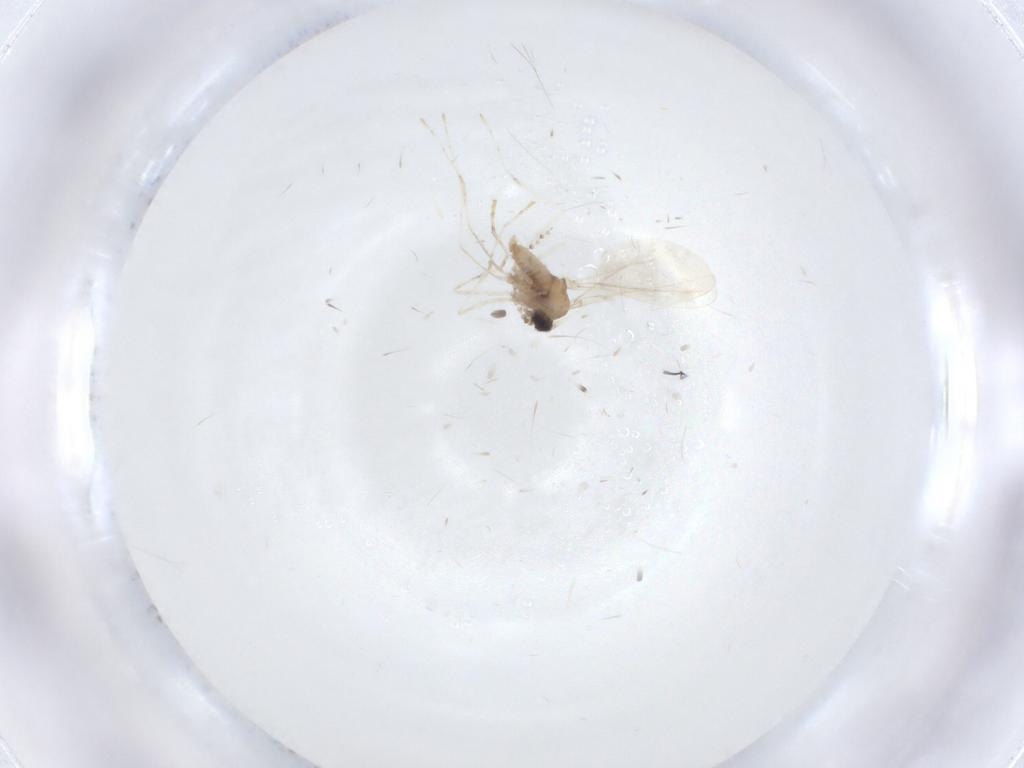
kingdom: Animalia
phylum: Arthropoda
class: Insecta
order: Diptera
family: Cecidomyiidae
